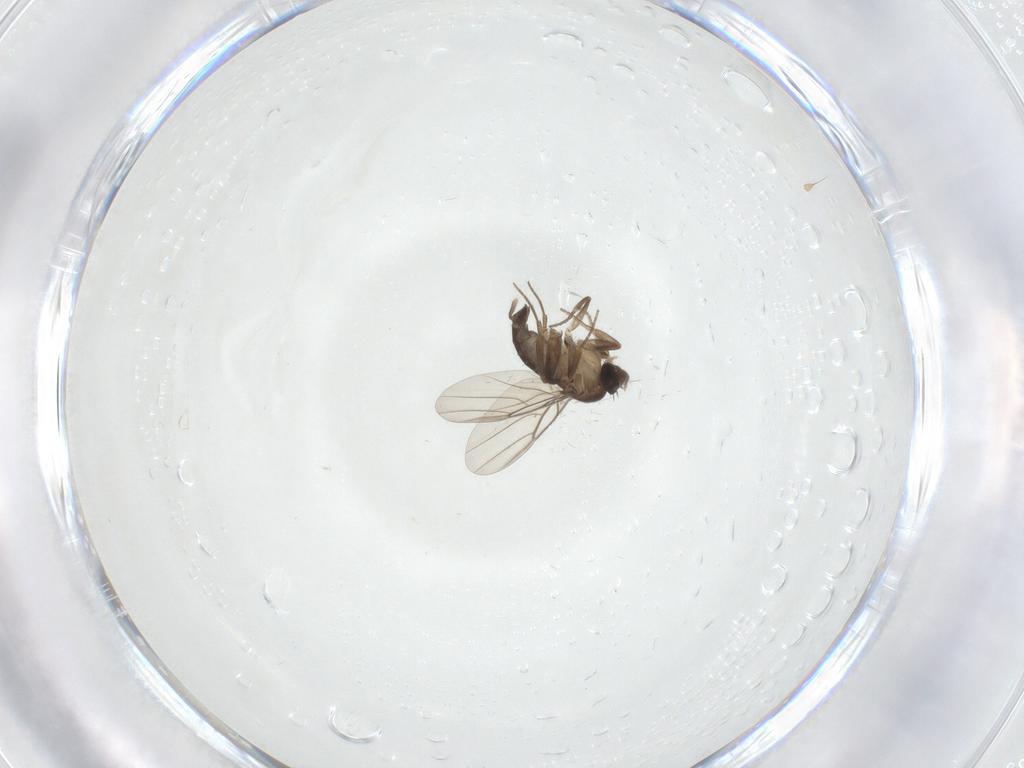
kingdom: Animalia
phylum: Arthropoda
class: Insecta
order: Diptera
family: Phoridae
